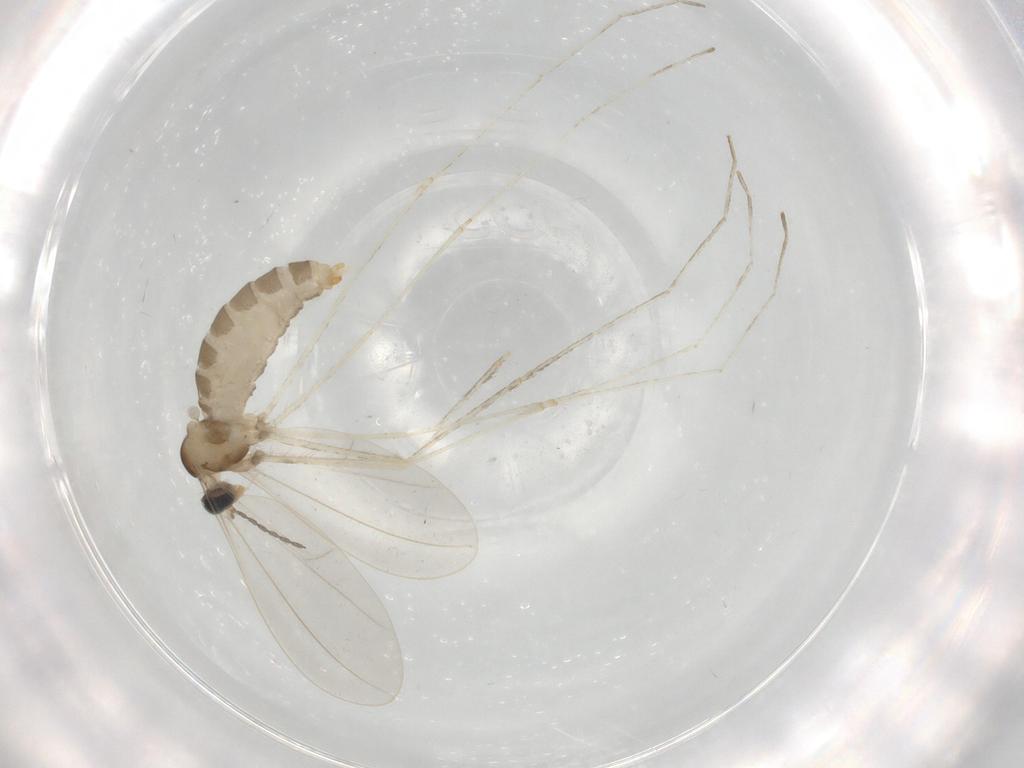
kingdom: Animalia
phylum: Arthropoda
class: Insecta
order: Diptera
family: Cecidomyiidae
